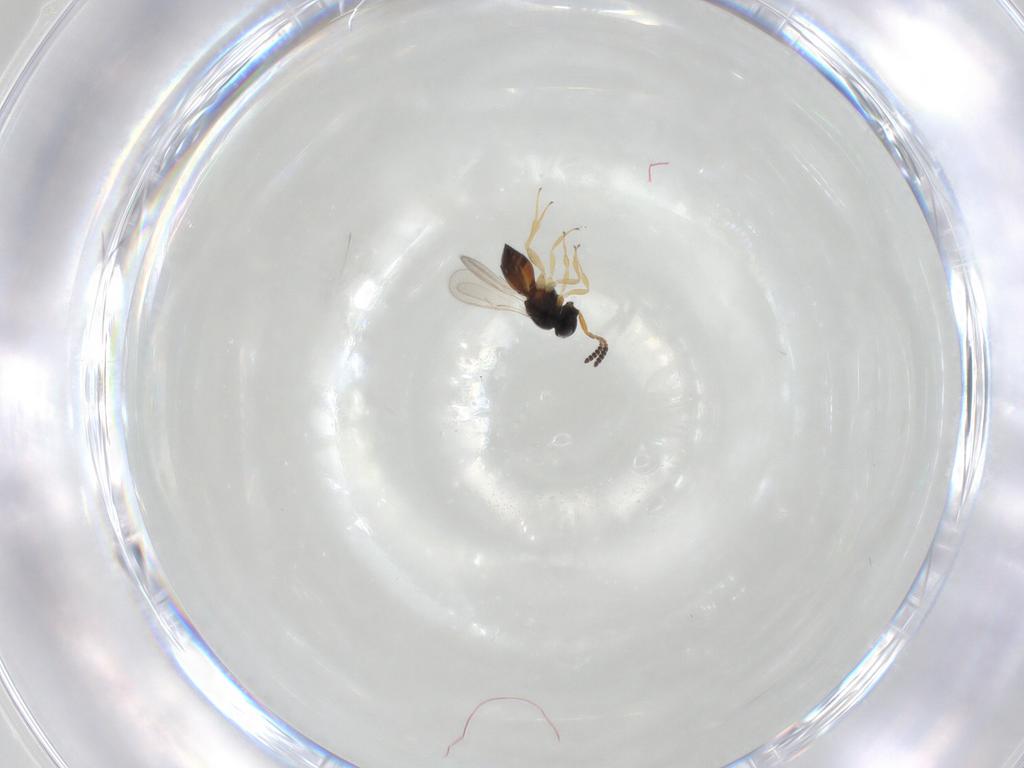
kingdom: Animalia
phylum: Arthropoda
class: Insecta
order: Hymenoptera
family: Scelionidae
